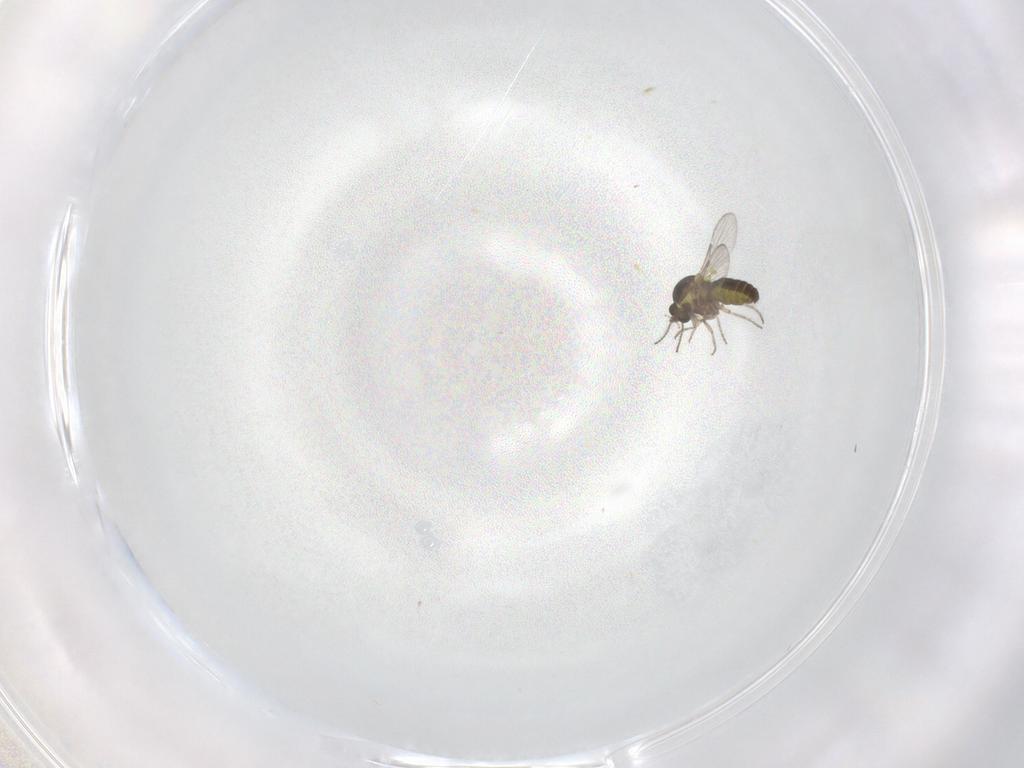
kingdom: Animalia
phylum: Arthropoda
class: Insecta
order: Diptera
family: Ceratopogonidae
